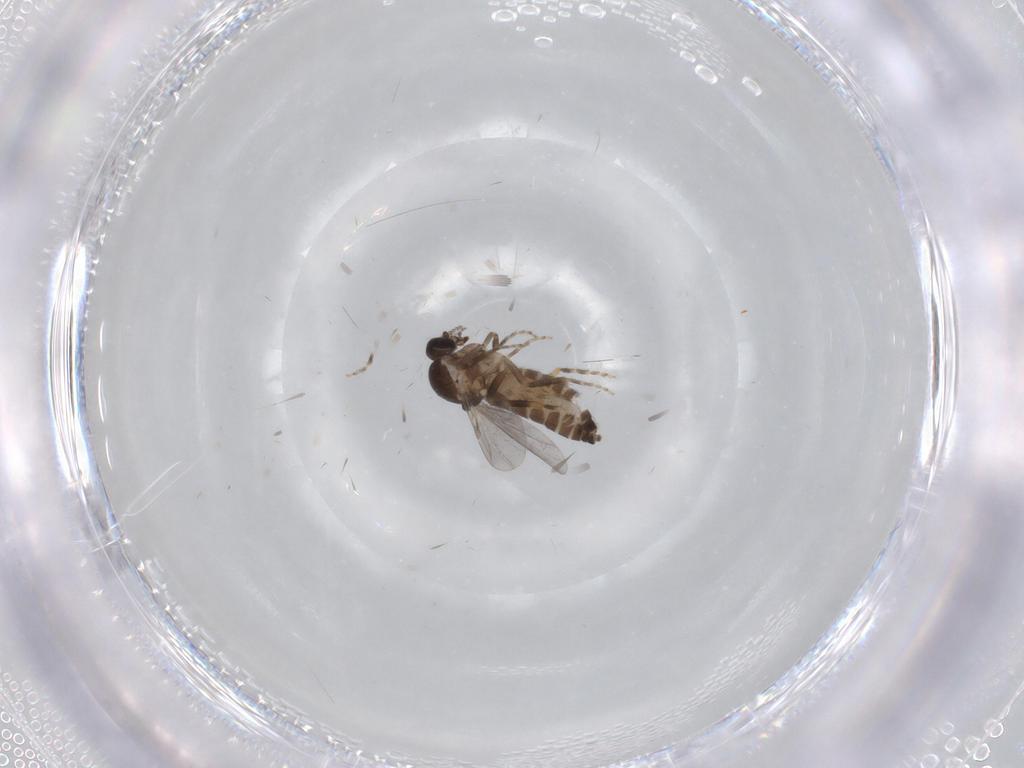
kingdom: Animalia
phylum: Arthropoda
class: Insecta
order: Diptera
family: Ceratopogonidae
